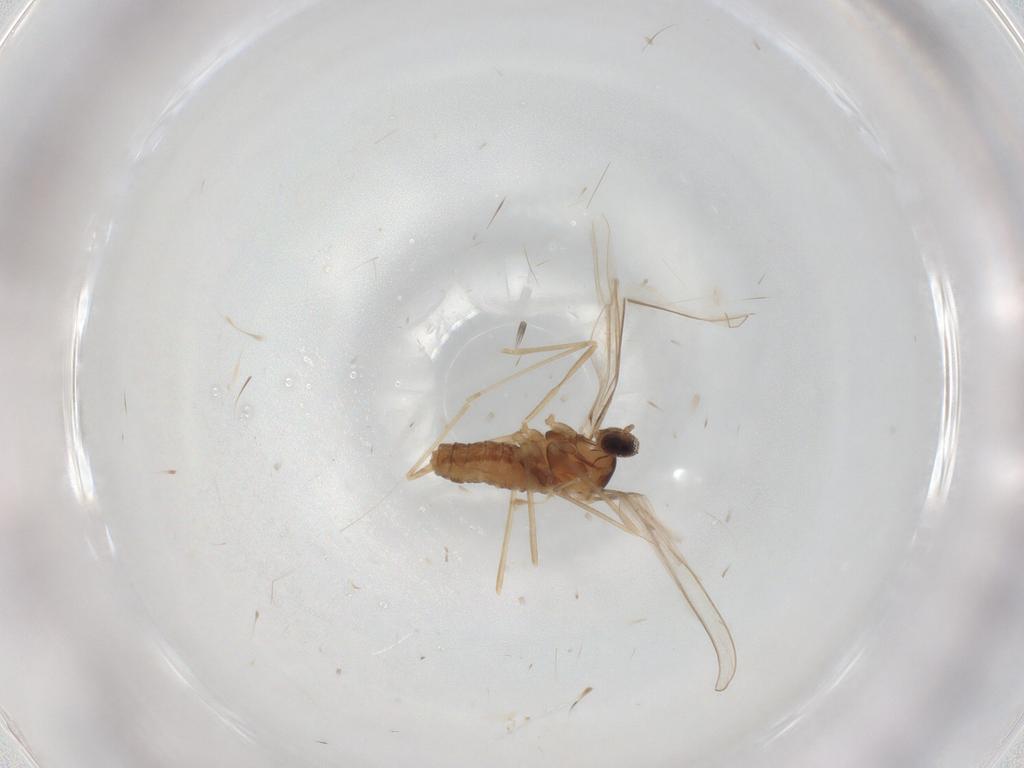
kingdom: Animalia
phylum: Arthropoda
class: Insecta
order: Diptera
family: Cecidomyiidae
